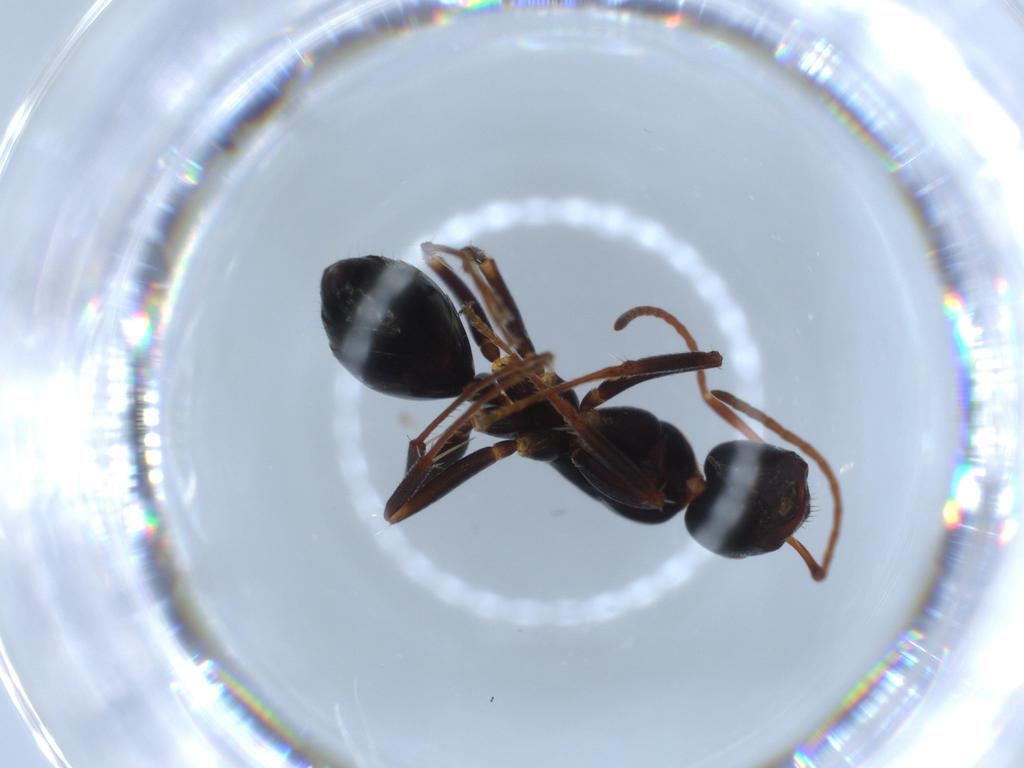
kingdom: Animalia
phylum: Arthropoda
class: Insecta
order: Hymenoptera
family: Formicidae
